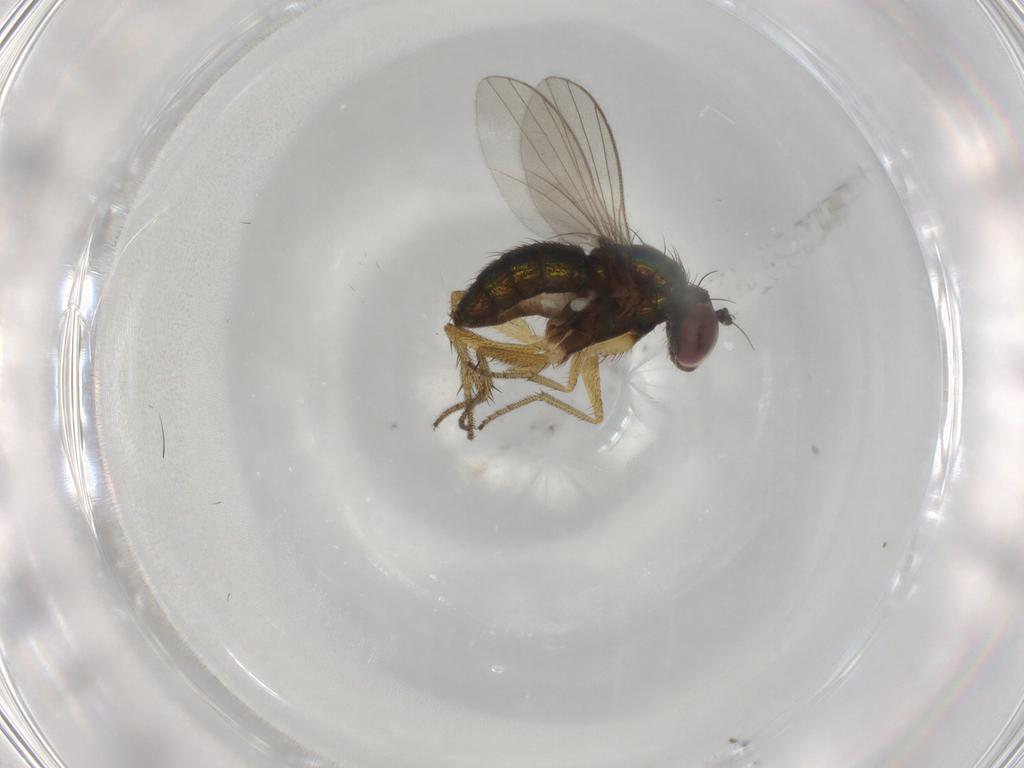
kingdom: Animalia
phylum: Arthropoda
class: Insecta
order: Diptera
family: Dolichopodidae
